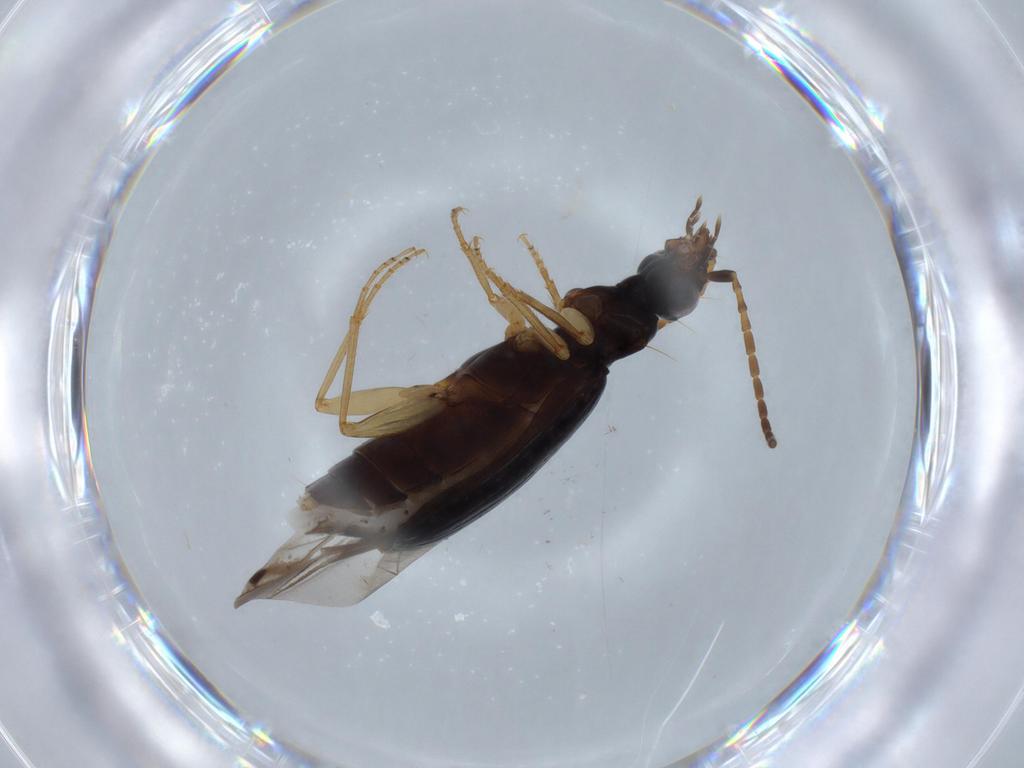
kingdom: Animalia
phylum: Arthropoda
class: Insecta
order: Coleoptera
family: Carabidae
